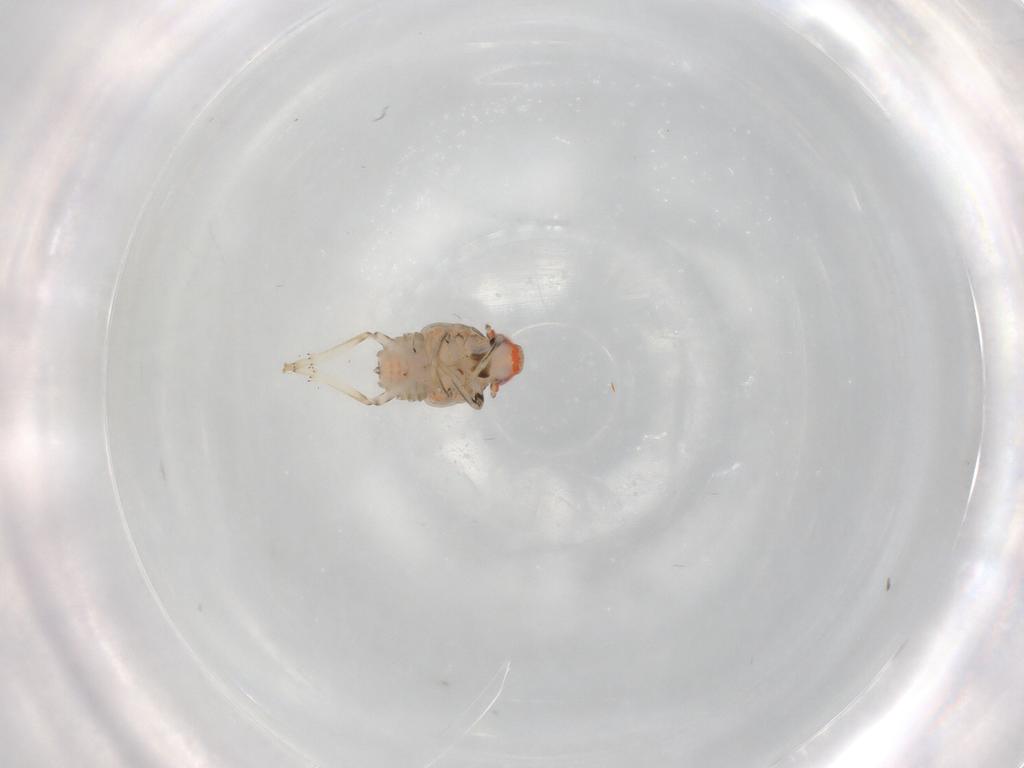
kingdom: Animalia
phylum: Arthropoda
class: Insecta
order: Hemiptera
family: Issidae
